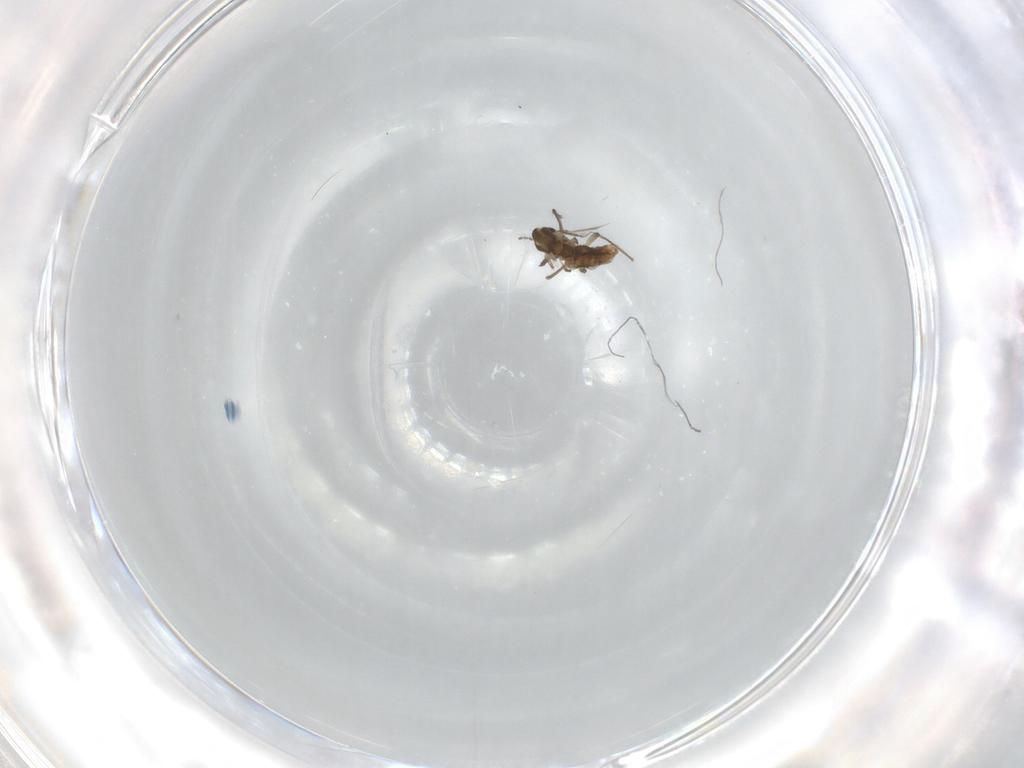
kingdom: Animalia
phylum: Arthropoda
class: Insecta
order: Diptera
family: Chironomidae
